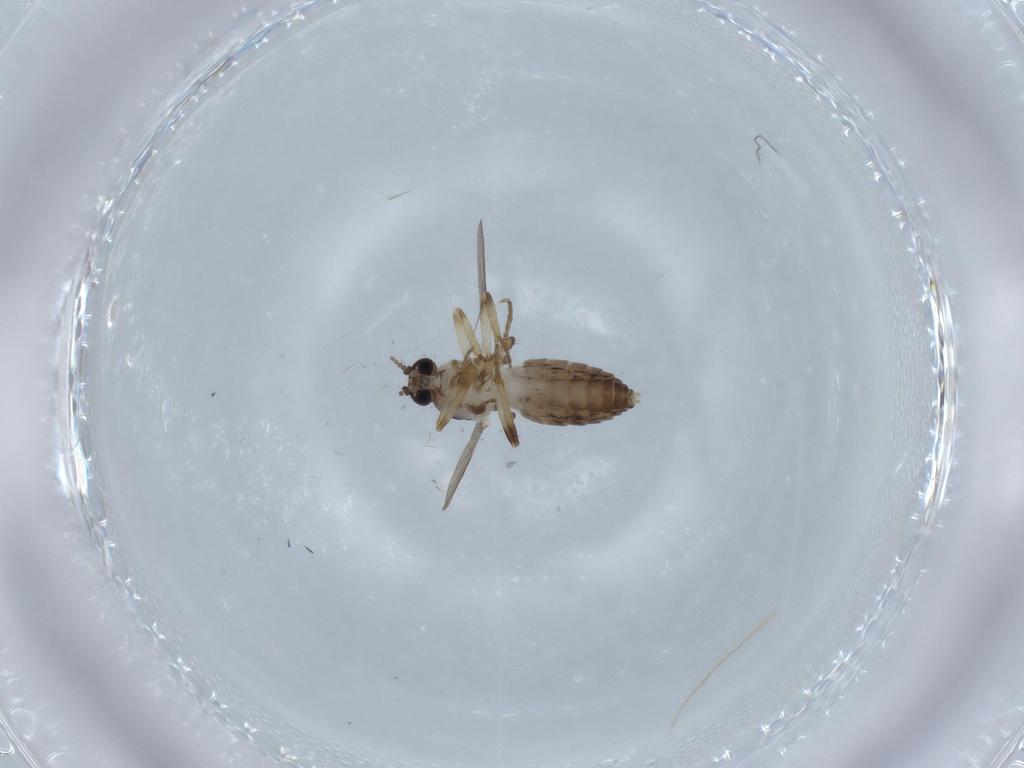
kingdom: Animalia
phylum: Arthropoda
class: Insecta
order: Diptera
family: Ceratopogonidae
